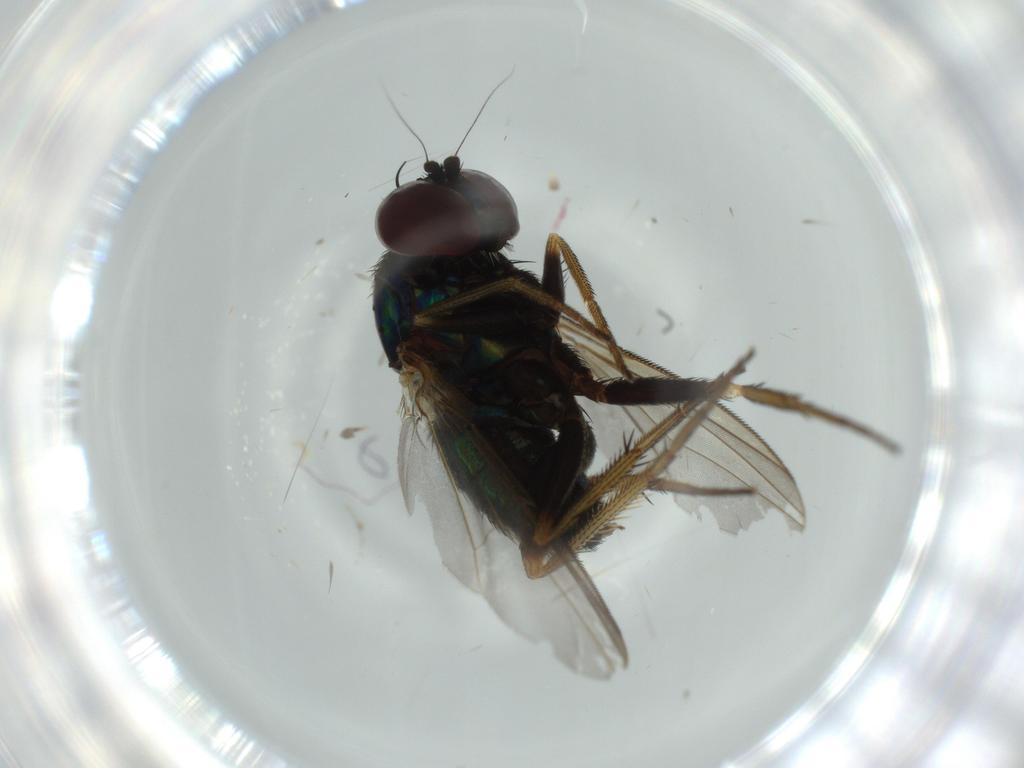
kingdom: Animalia
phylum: Arthropoda
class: Insecta
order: Diptera
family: Dolichopodidae
